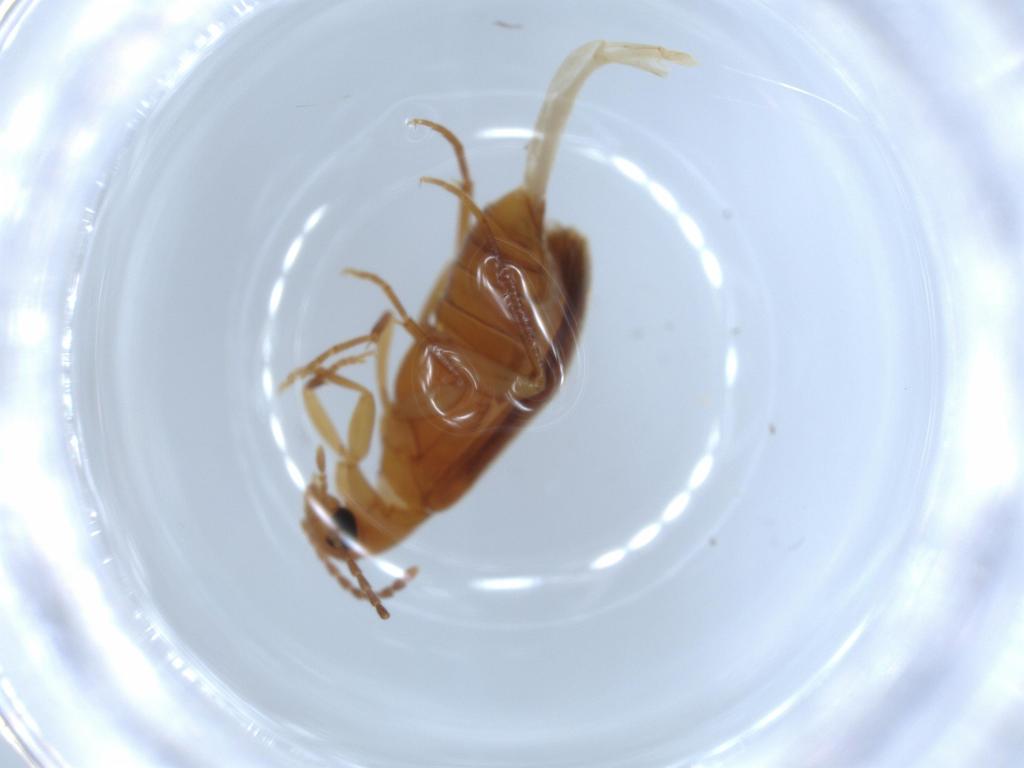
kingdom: Animalia
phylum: Arthropoda
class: Insecta
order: Coleoptera
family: Scraptiidae
